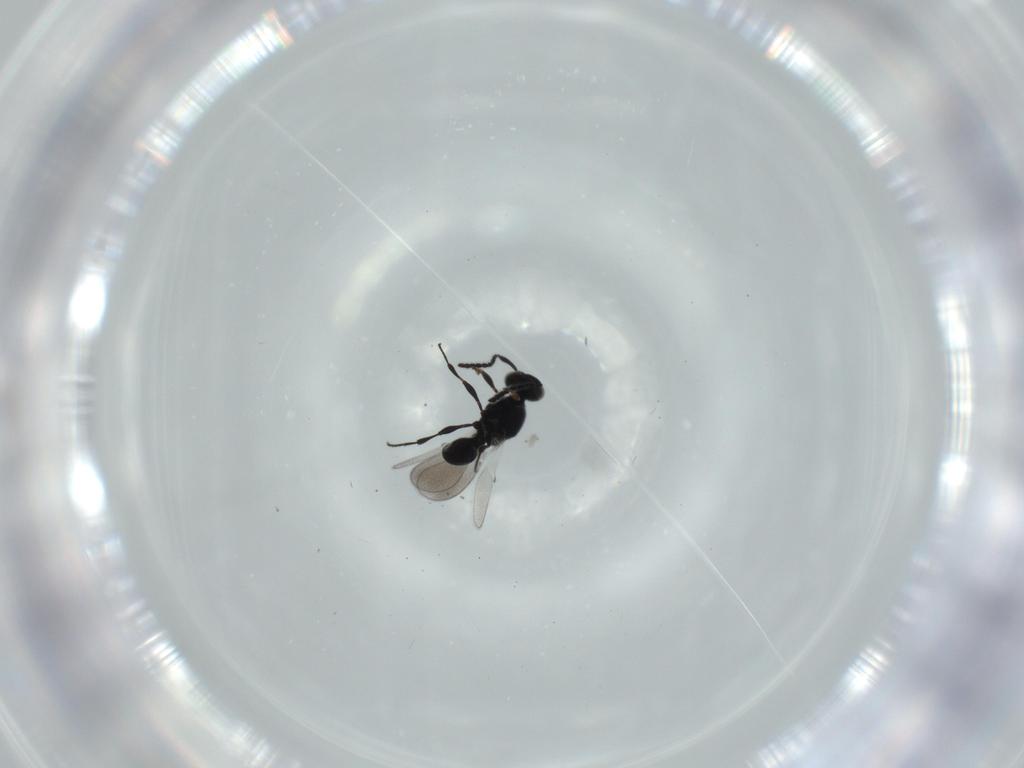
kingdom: Animalia
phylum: Arthropoda
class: Insecta
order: Hymenoptera
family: Platygastridae
